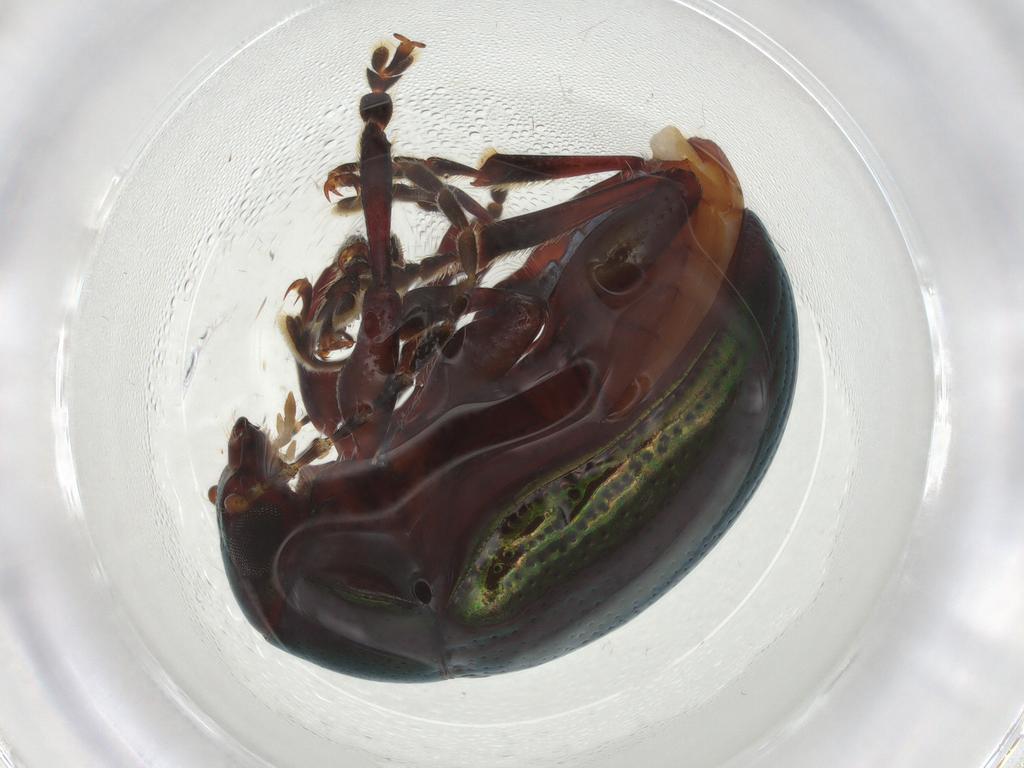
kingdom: Animalia
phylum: Arthropoda
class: Insecta
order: Coleoptera
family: Chrysomelidae
